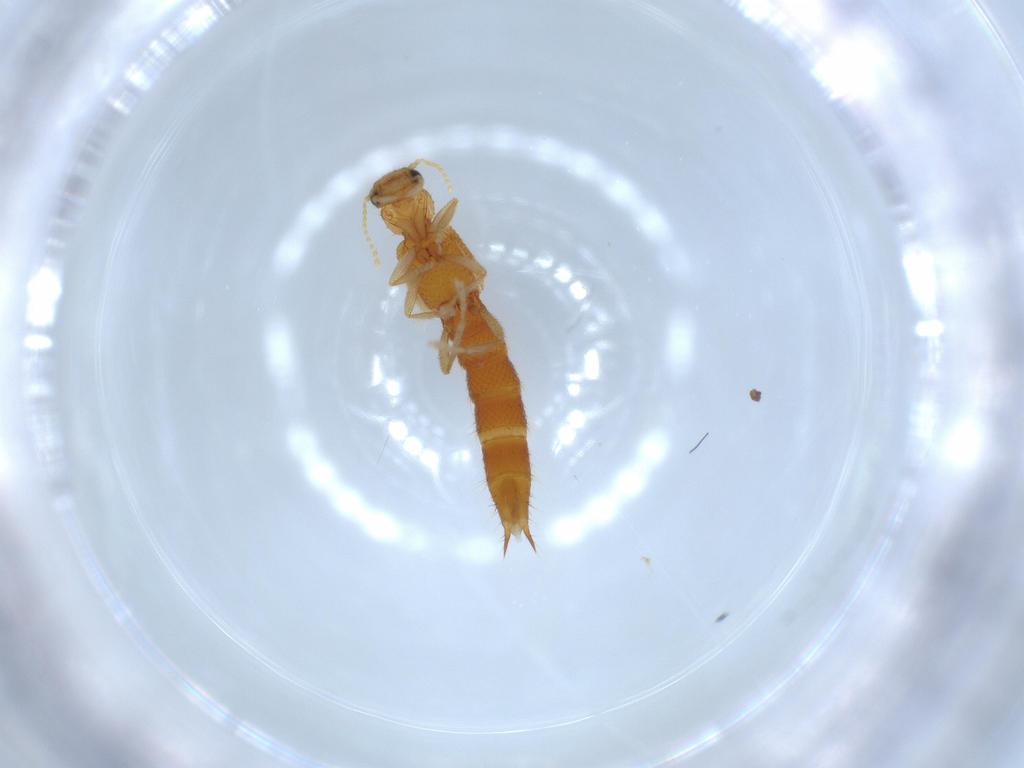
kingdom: Animalia
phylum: Arthropoda
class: Insecta
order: Coleoptera
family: Staphylinidae
